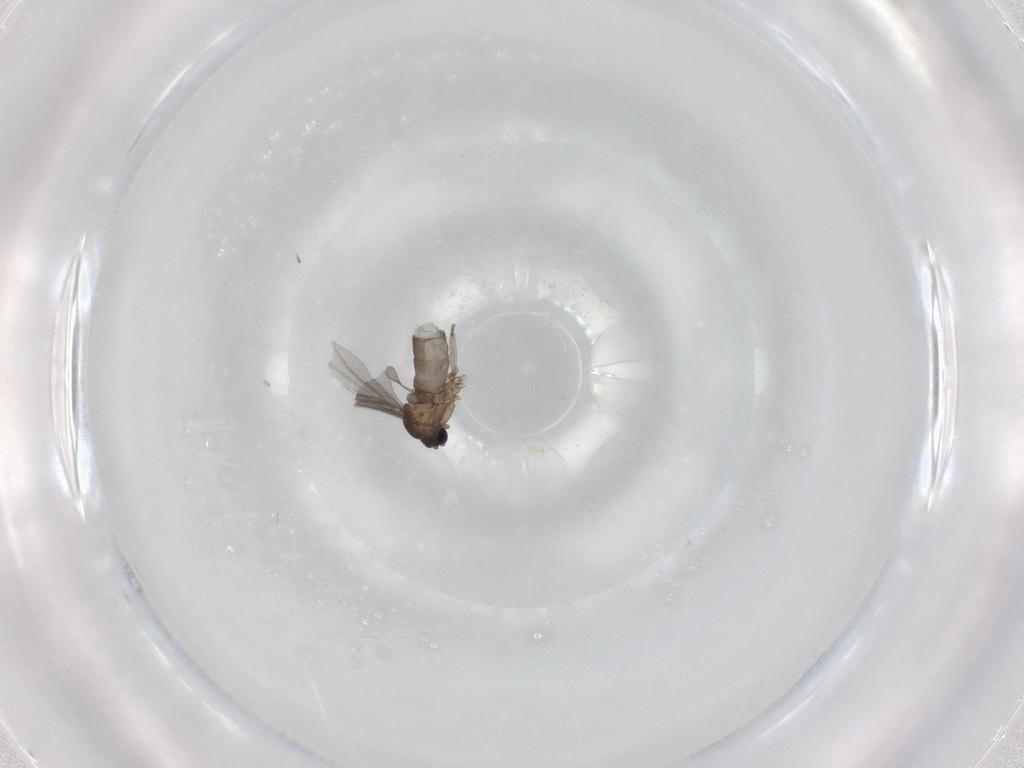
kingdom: Animalia
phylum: Arthropoda
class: Insecta
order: Diptera
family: Sciaridae
